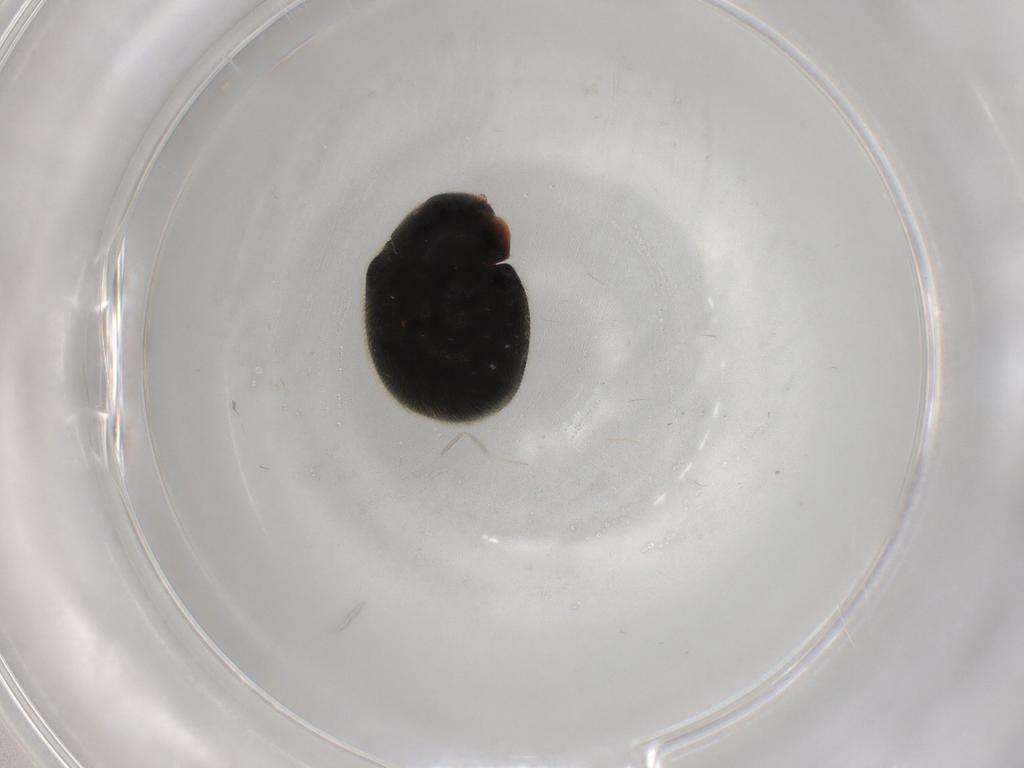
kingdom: Animalia
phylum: Arthropoda
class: Insecta
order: Coleoptera
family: Coccinellidae
